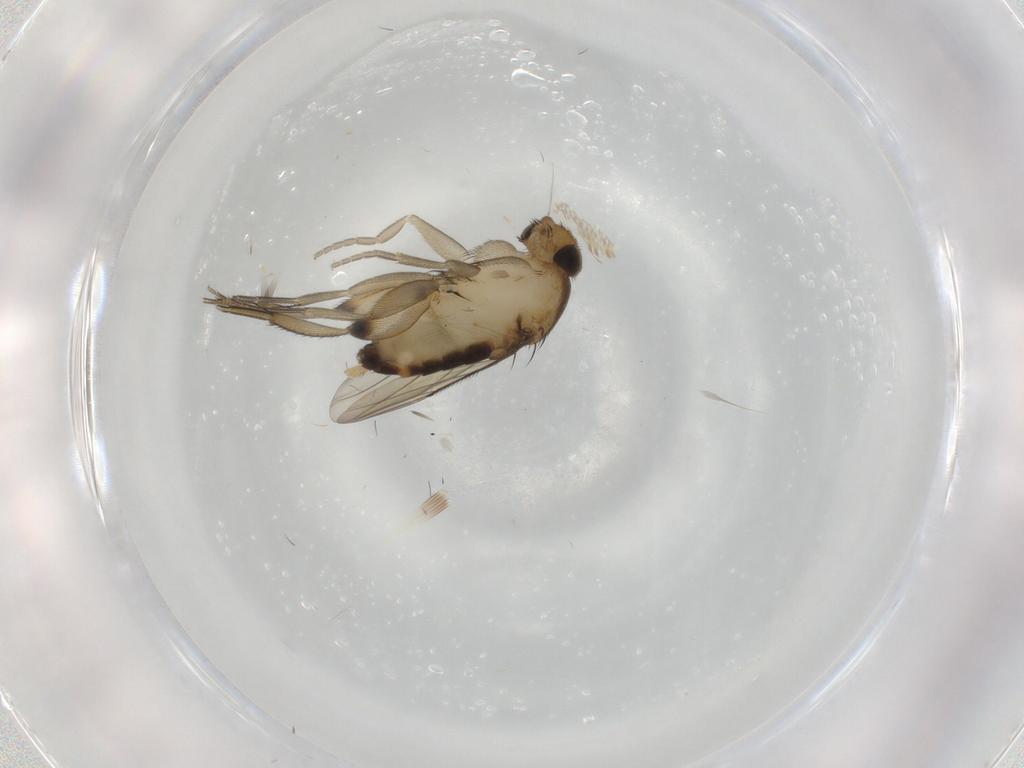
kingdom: Animalia
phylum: Arthropoda
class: Insecta
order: Diptera
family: Phoridae
